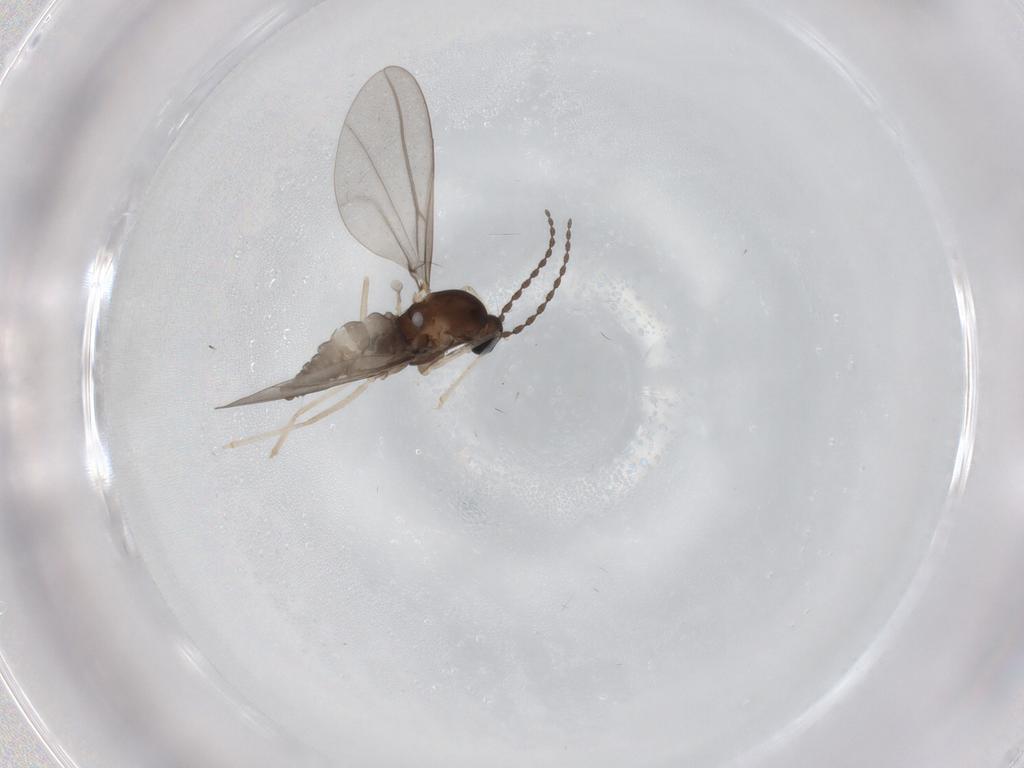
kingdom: Animalia
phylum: Arthropoda
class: Insecta
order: Diptera
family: Cecidomyiidae
